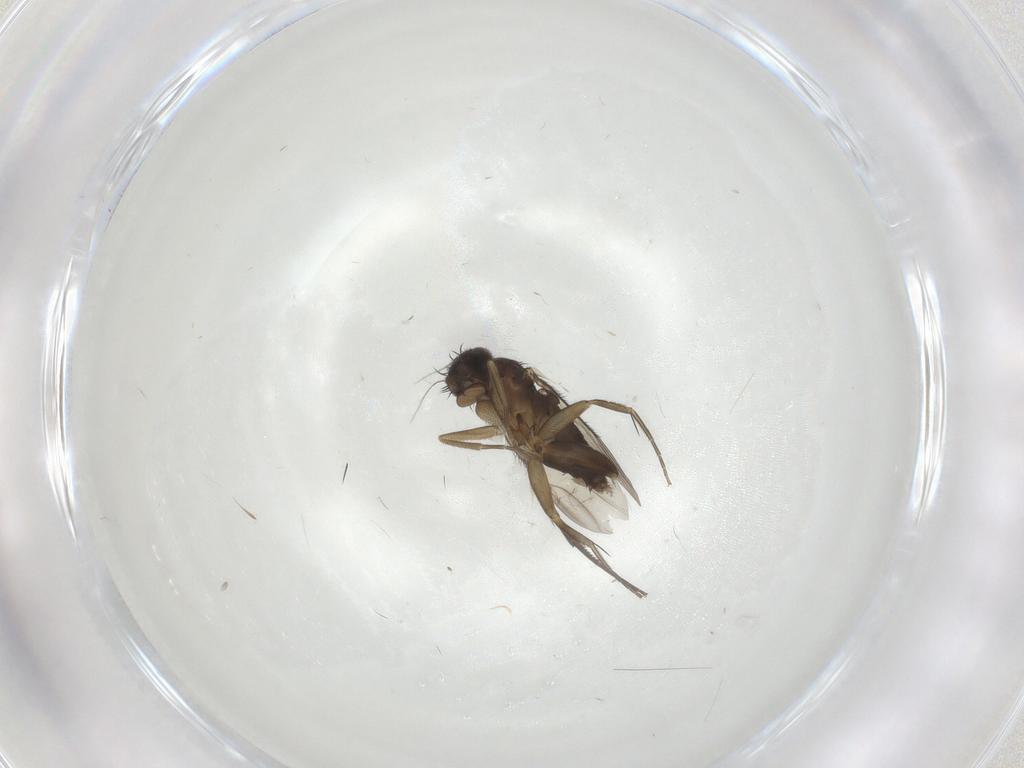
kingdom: Animalia
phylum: Arthropoda
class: Insecta
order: Diptera
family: Phoridae
